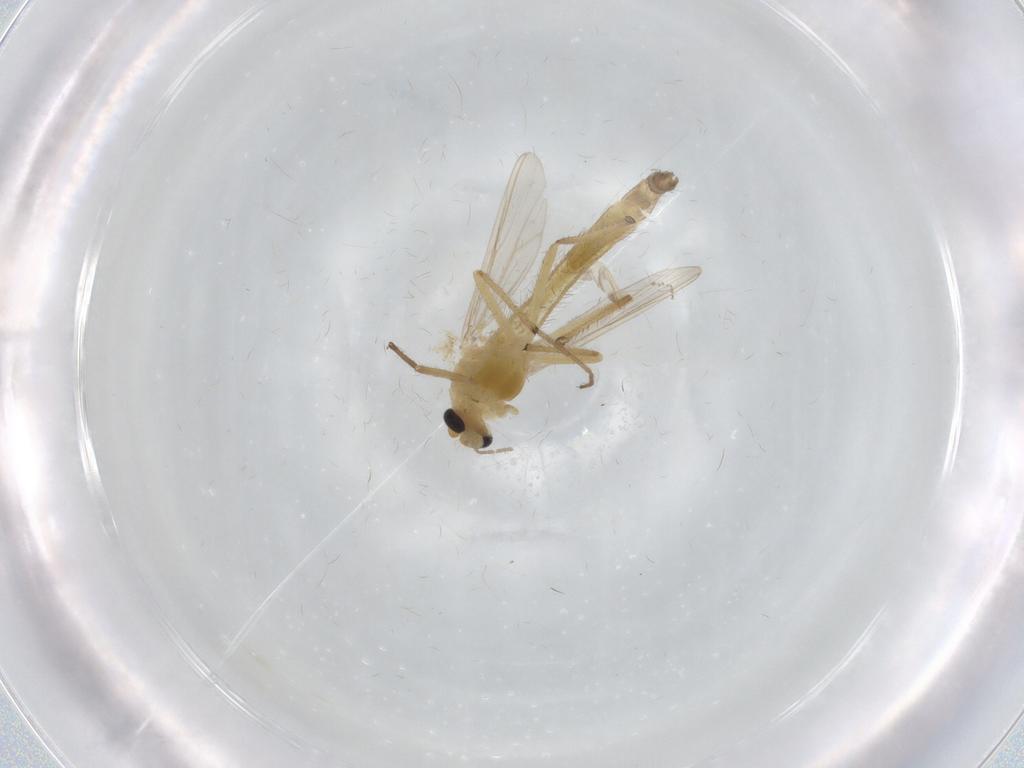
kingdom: Animalia
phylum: Arthropoda
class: Insecta
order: Diptera
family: Chironomidae
